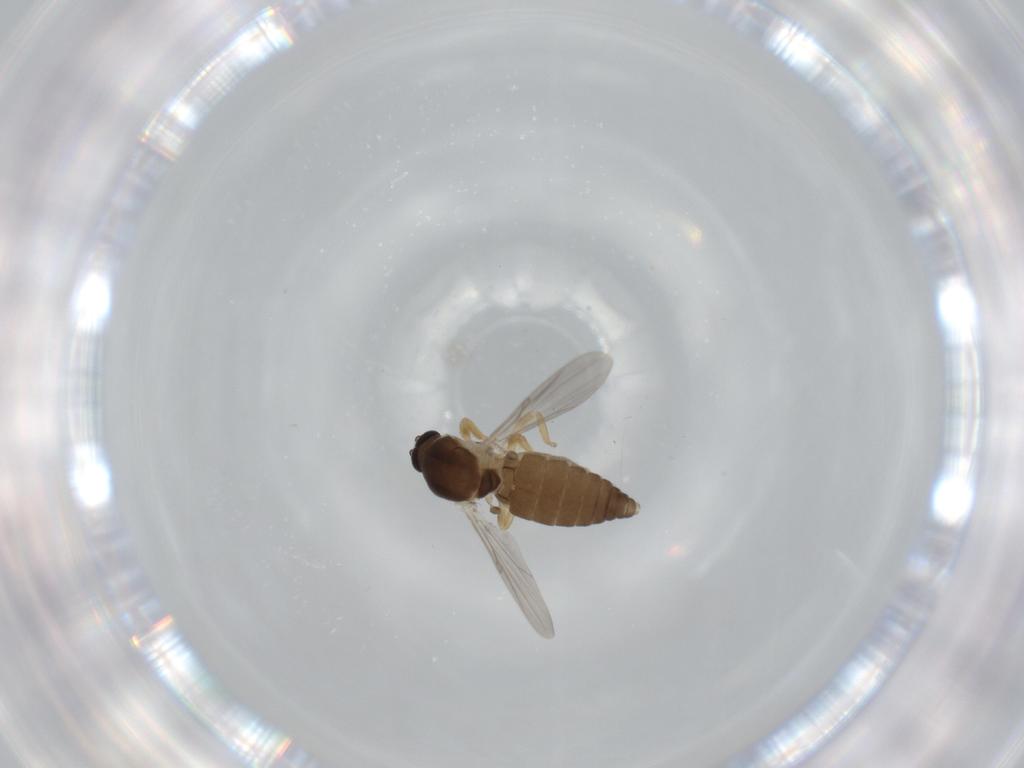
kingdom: Animalia
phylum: Arthropoda
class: Insecta
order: Diptera
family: Ceratopogonidae
